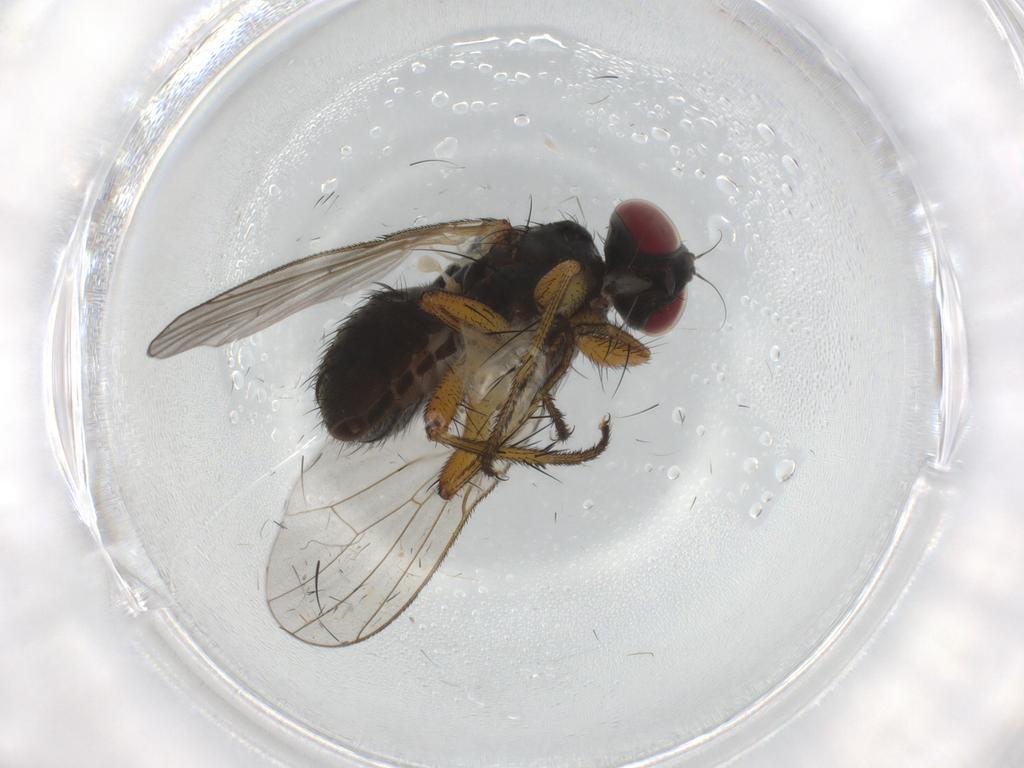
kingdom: Animalia
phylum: Arthropoda
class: Insecta
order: Diptera
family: Muscidae
